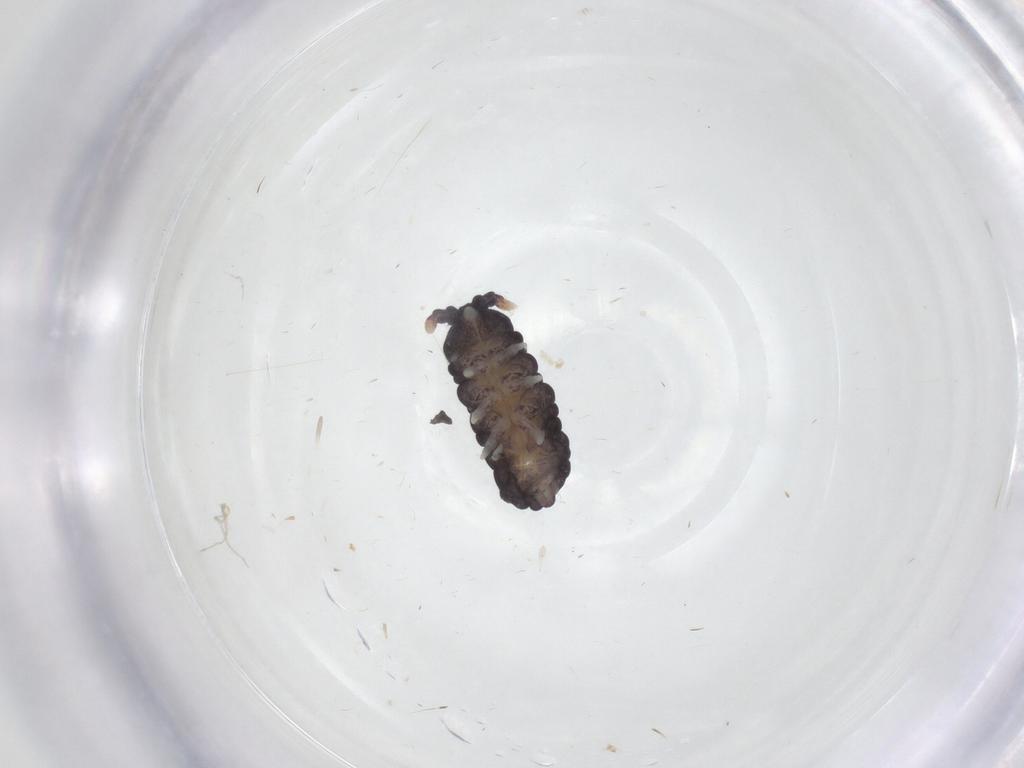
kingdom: Animalia
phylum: Arthropoda
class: Collembola
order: Poduromorpha
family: Neanuridae
